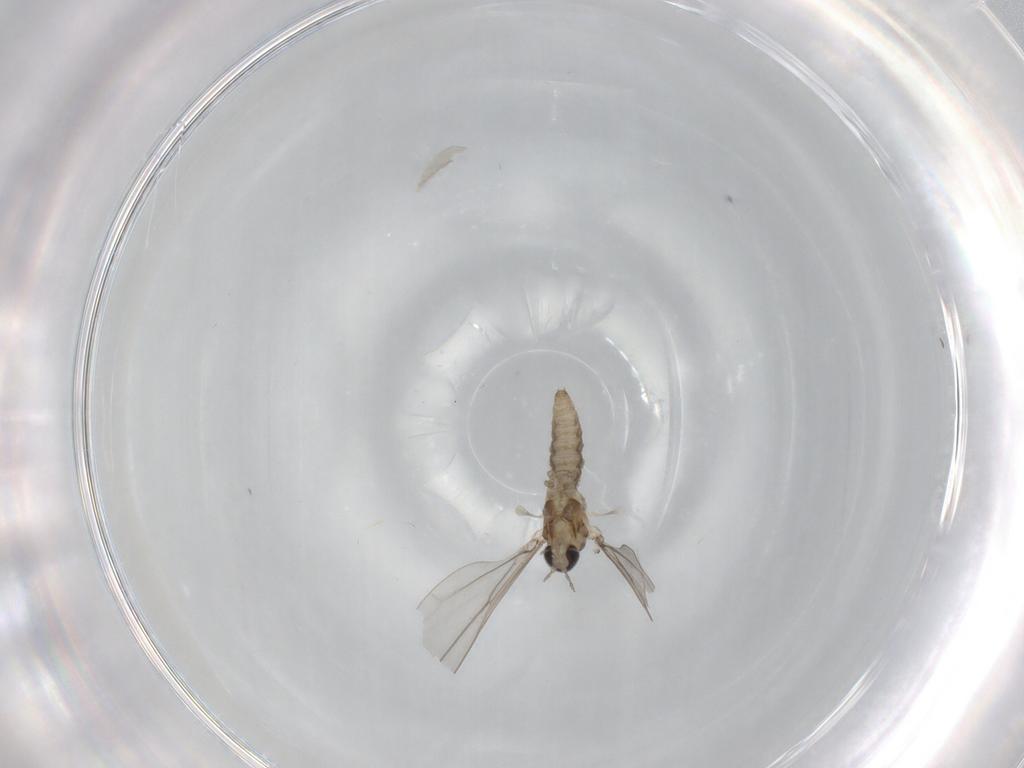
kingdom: Animalia
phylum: Arthropoda
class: Insecta
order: Diptera
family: Cecidomyiidae
